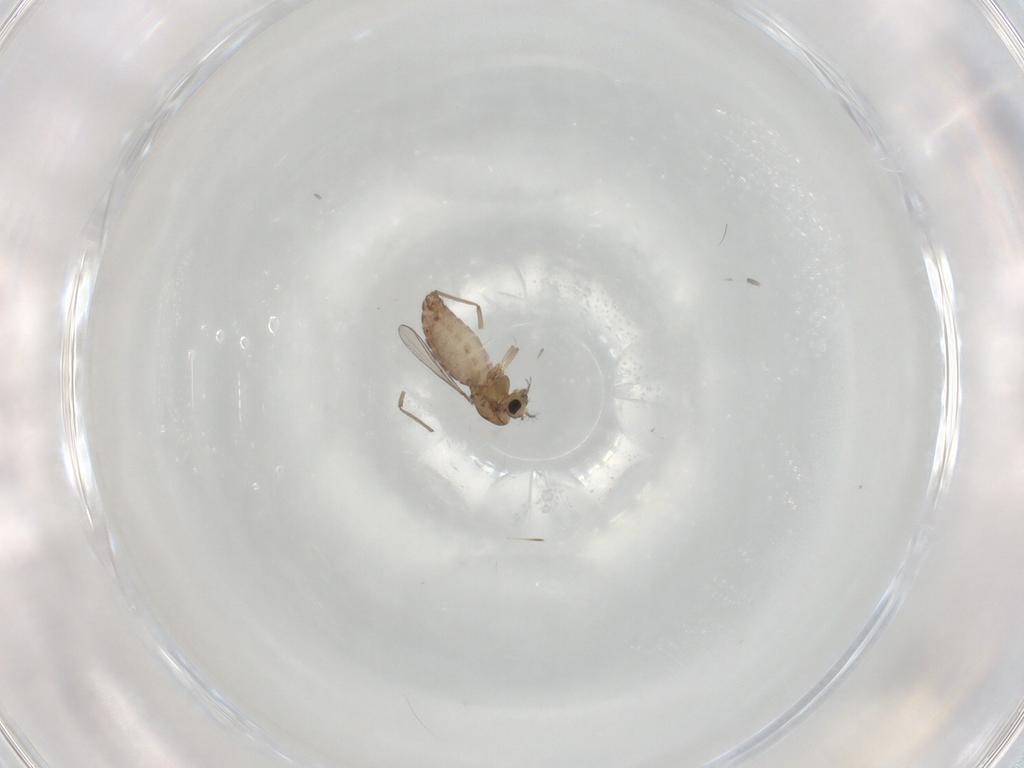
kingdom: Animalia
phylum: Arthropoda
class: Insecta
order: Diptera
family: Chironomidae
